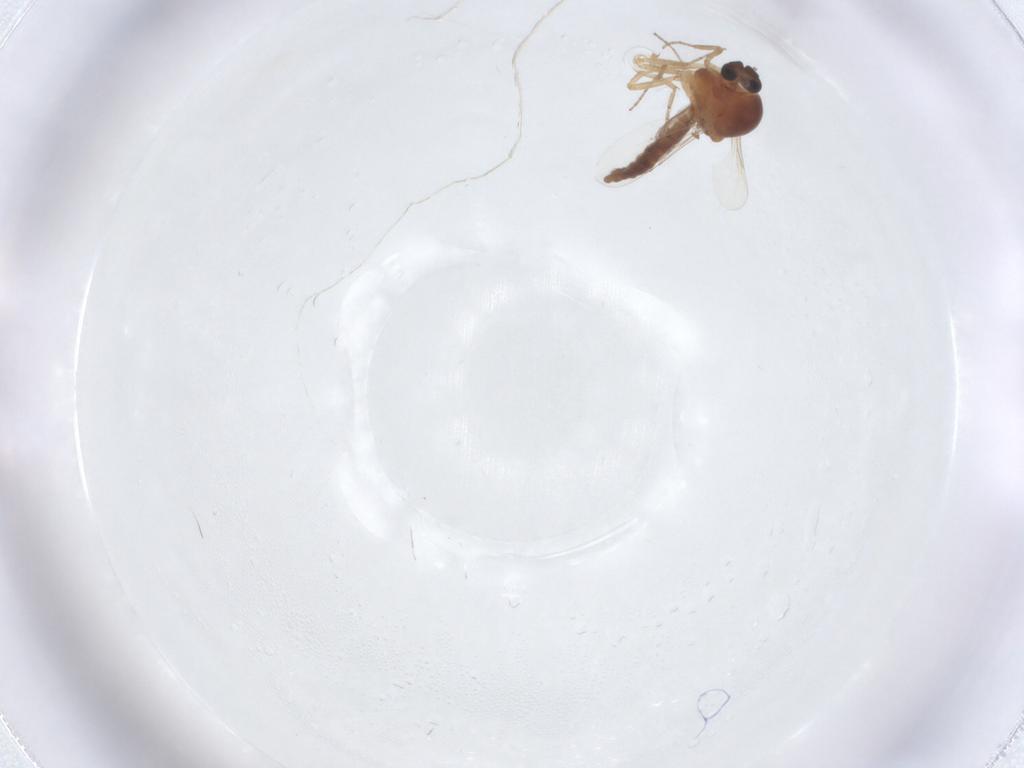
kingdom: Animalia
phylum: Arthropoda
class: Insecta
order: Diptera
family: Ceratopogonidae
